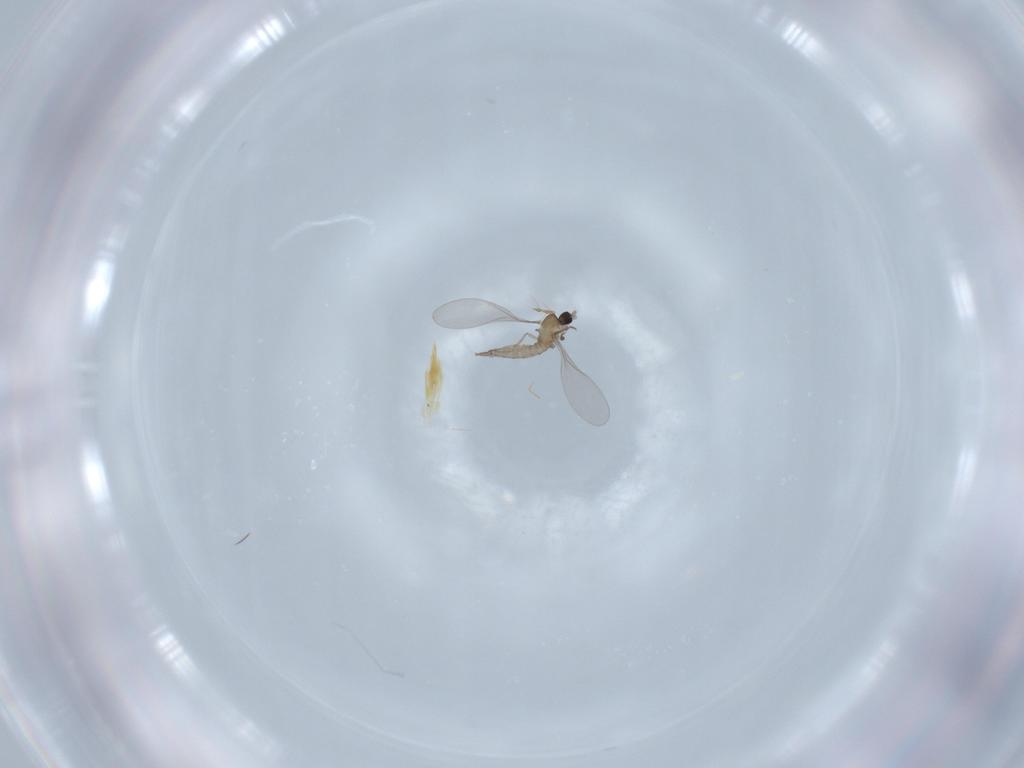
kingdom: Animalia
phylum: Arthropoda
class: Insecta
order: Diptera
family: Cecidomyiidae
